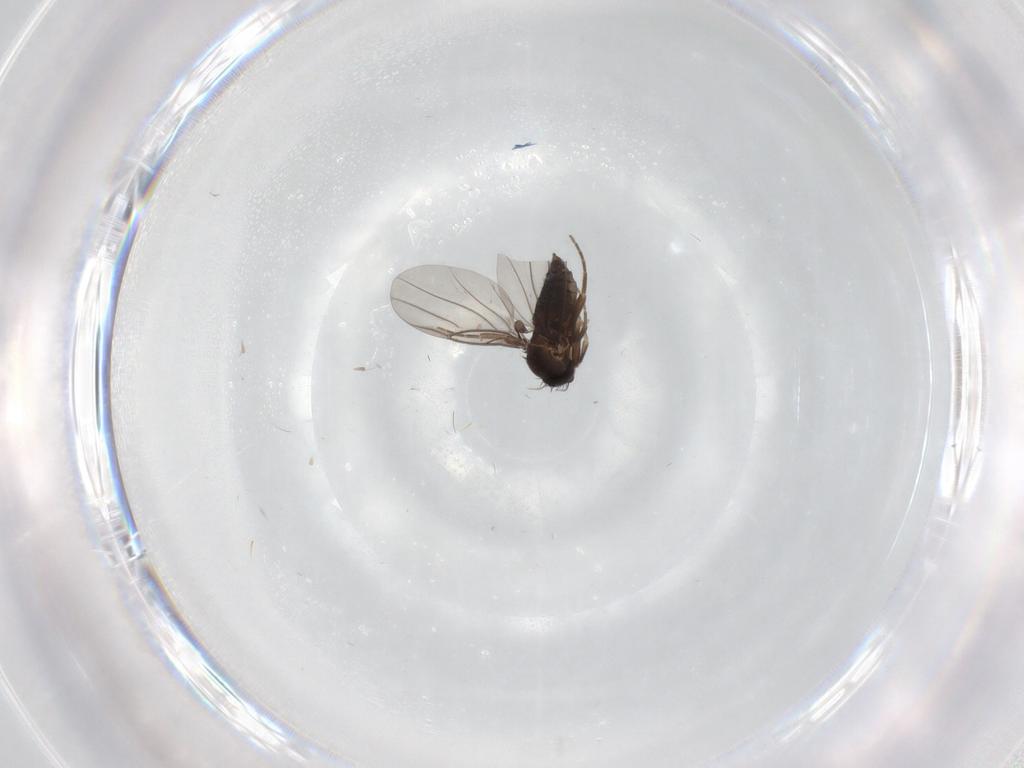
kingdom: Animalia
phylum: Arthropoda
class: Insecta
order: Diptera
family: Phoridae
